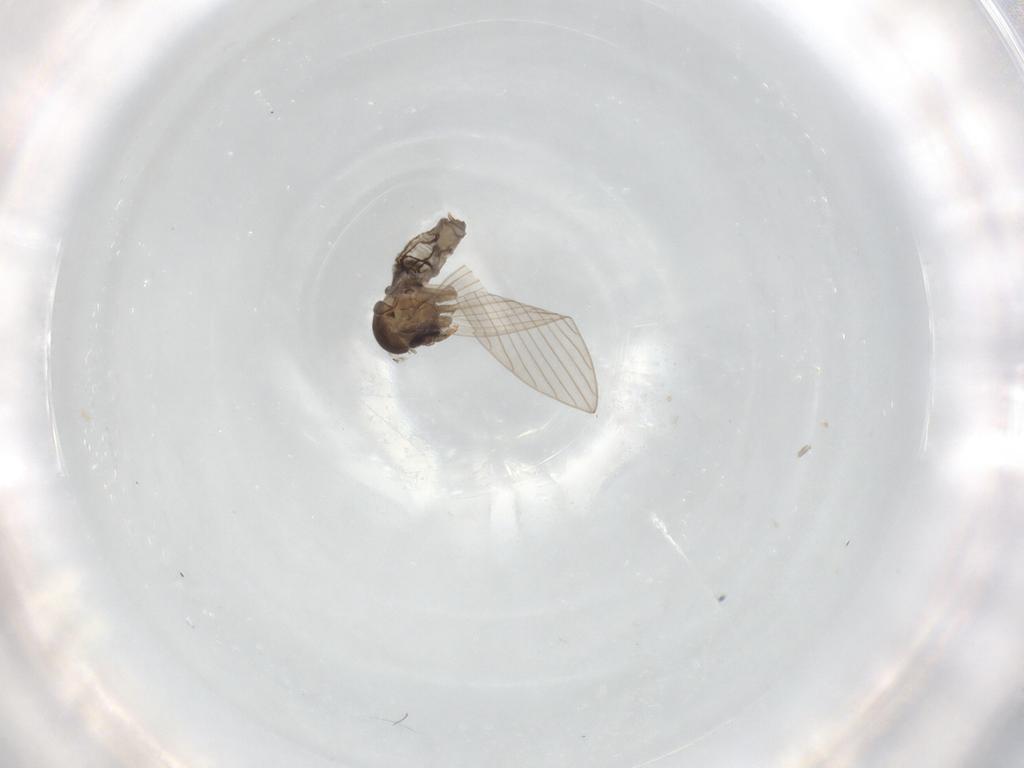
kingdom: Animalia
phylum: Arthropoda
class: Insecta
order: Diptera
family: Psychodidae
